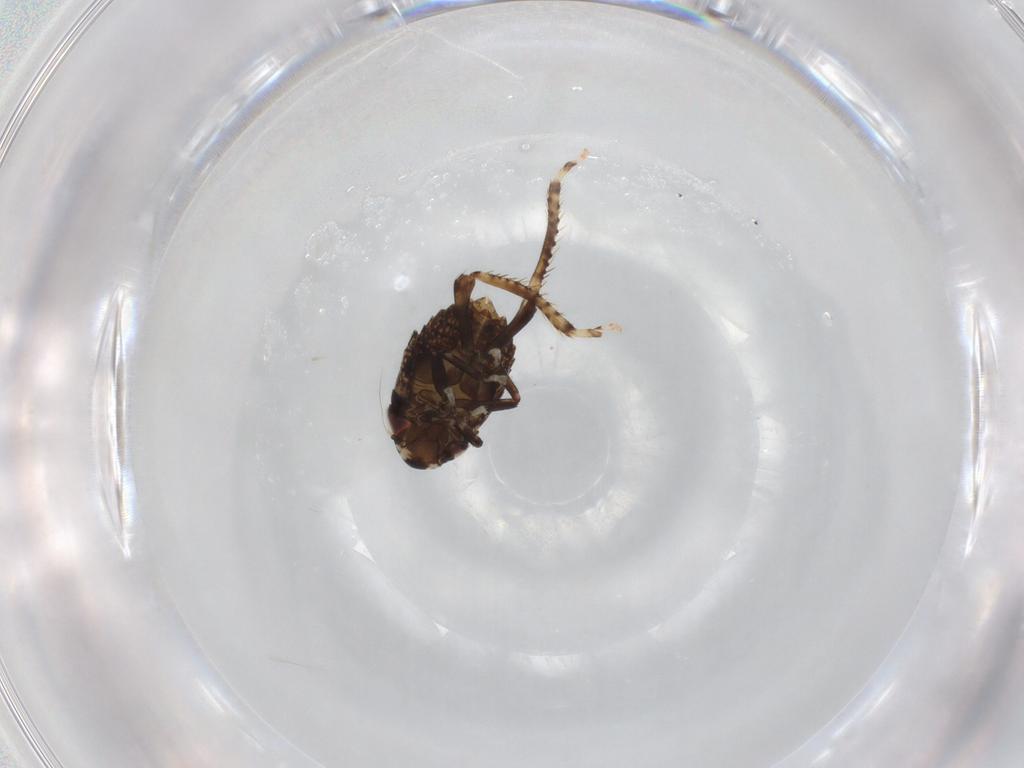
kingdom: Animalia
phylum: Arthropoda
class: Insecta
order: Hemiptera
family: Cicadellidae
